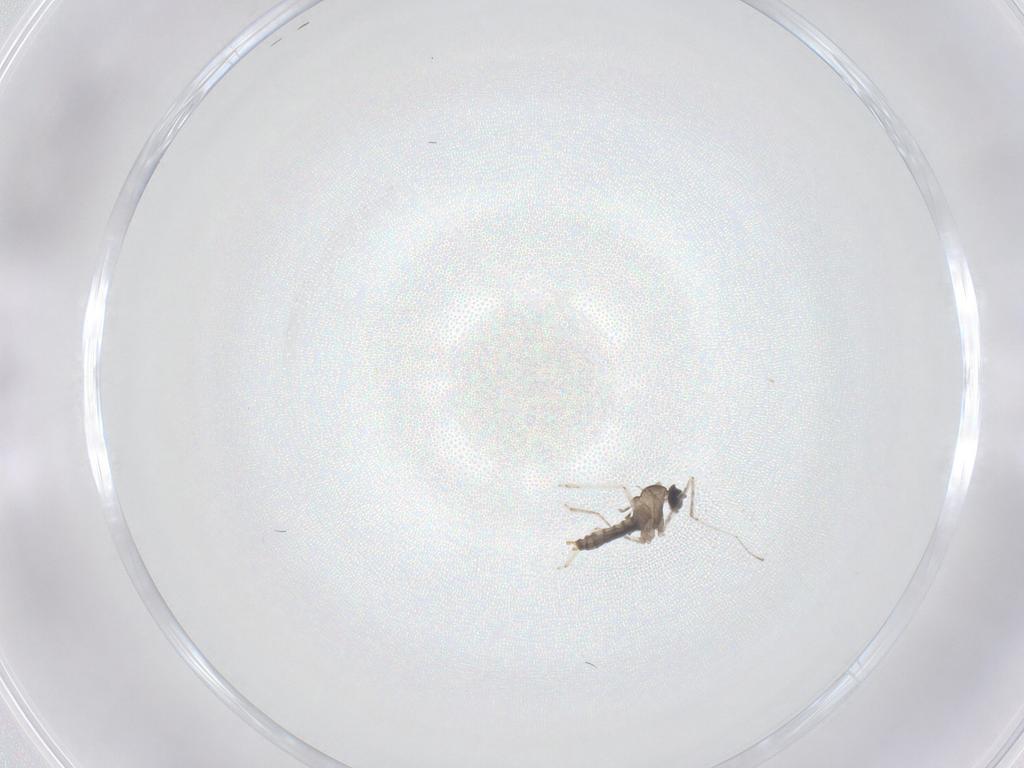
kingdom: Animalia
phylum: Arthropoda
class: Insecta
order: Diptera
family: Cecidomyiidae
